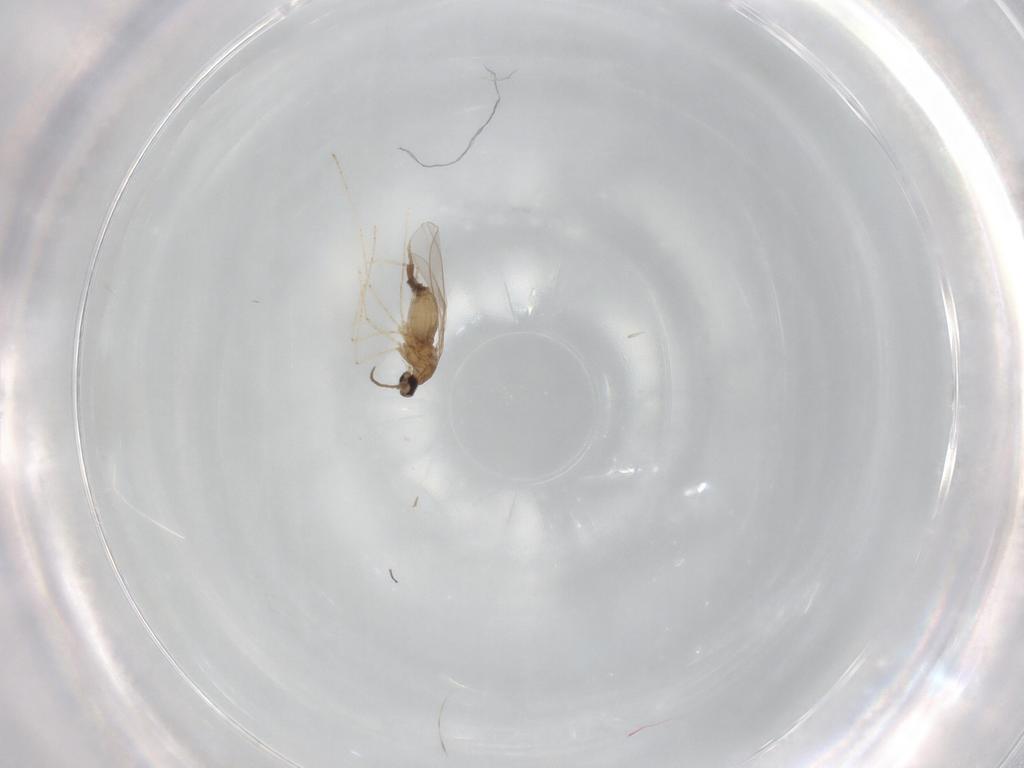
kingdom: Animalia
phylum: Arthropoda
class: Insecta
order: Diptera
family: Cecidomyiidae
